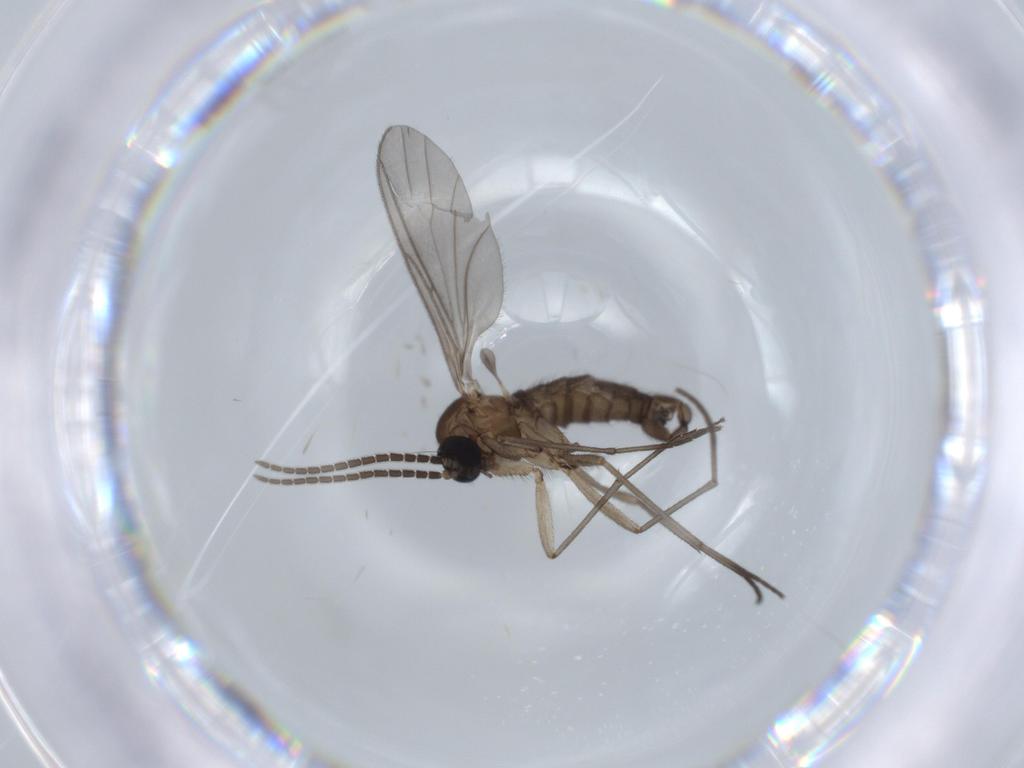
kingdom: Animalia
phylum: Arthropoda
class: Insecta
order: Diptera
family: Sciaridae
